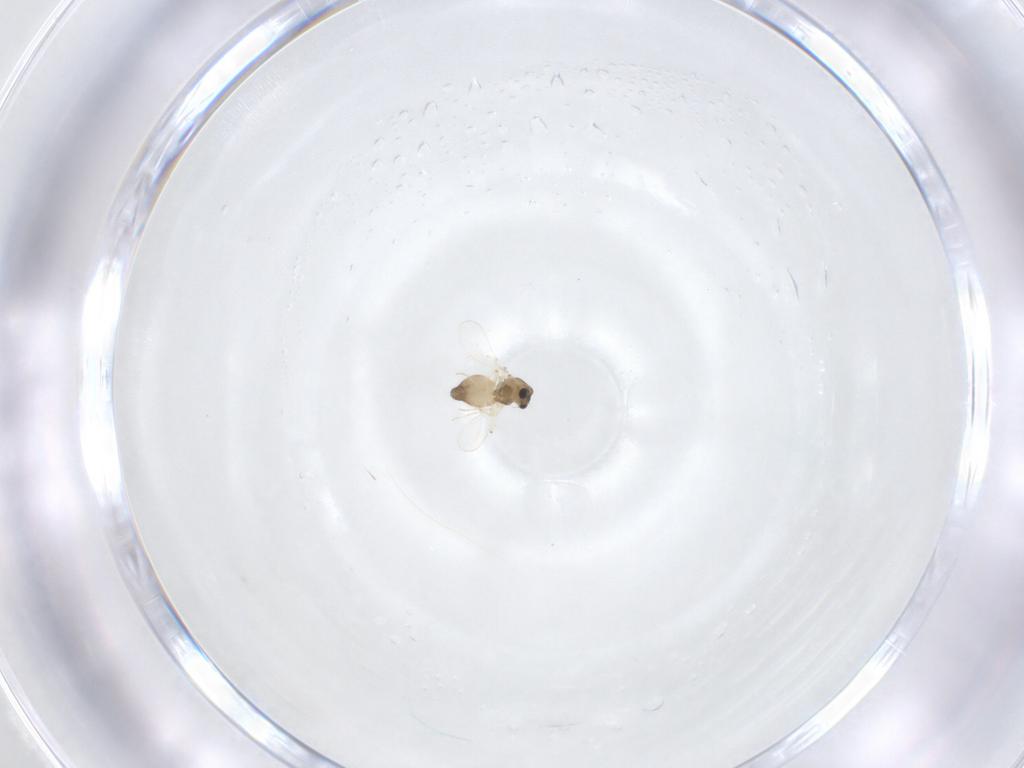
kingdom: Animalia
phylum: Arthropoda
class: Insecta
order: Diptera
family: Chironomidae
